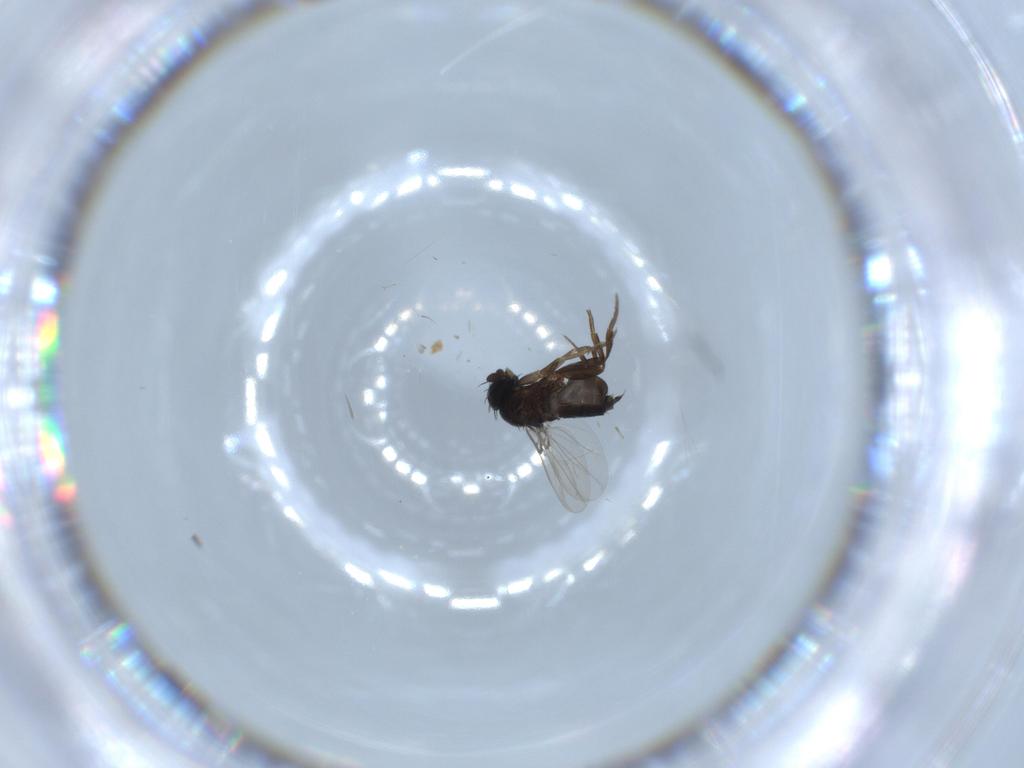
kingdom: Animalia
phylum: Arthropoda
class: Insecta
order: Diptera
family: Phoridae
